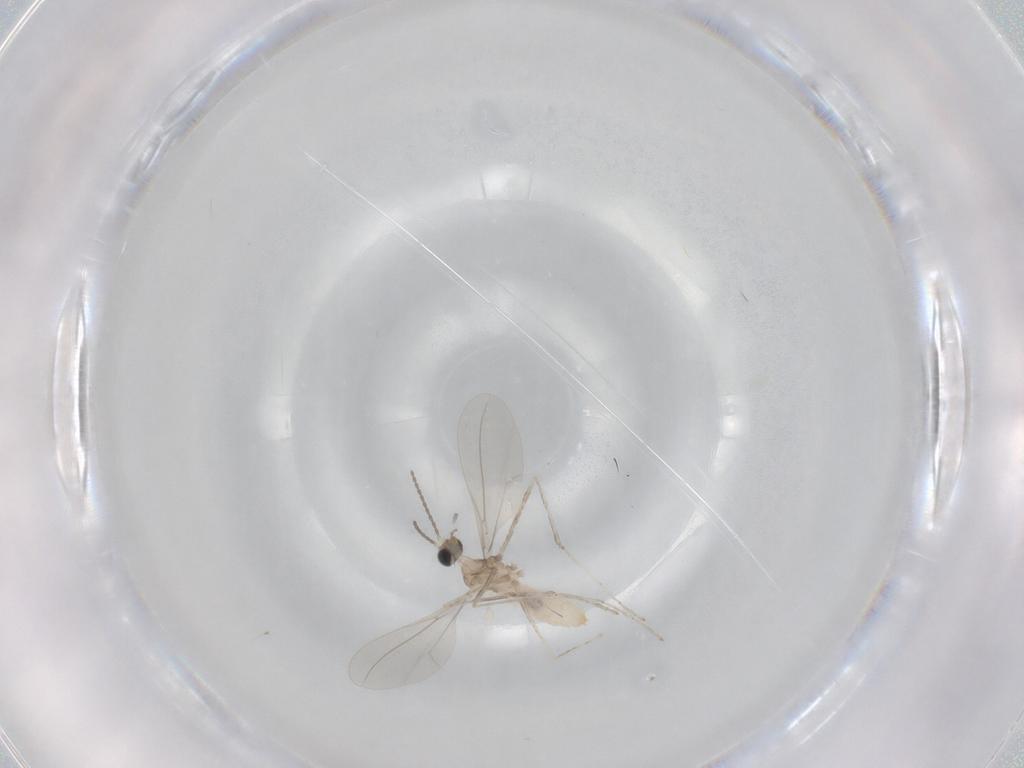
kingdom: Animalia
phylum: Arthropoda
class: Insecta
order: Diptera
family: Cecidomyiidae
